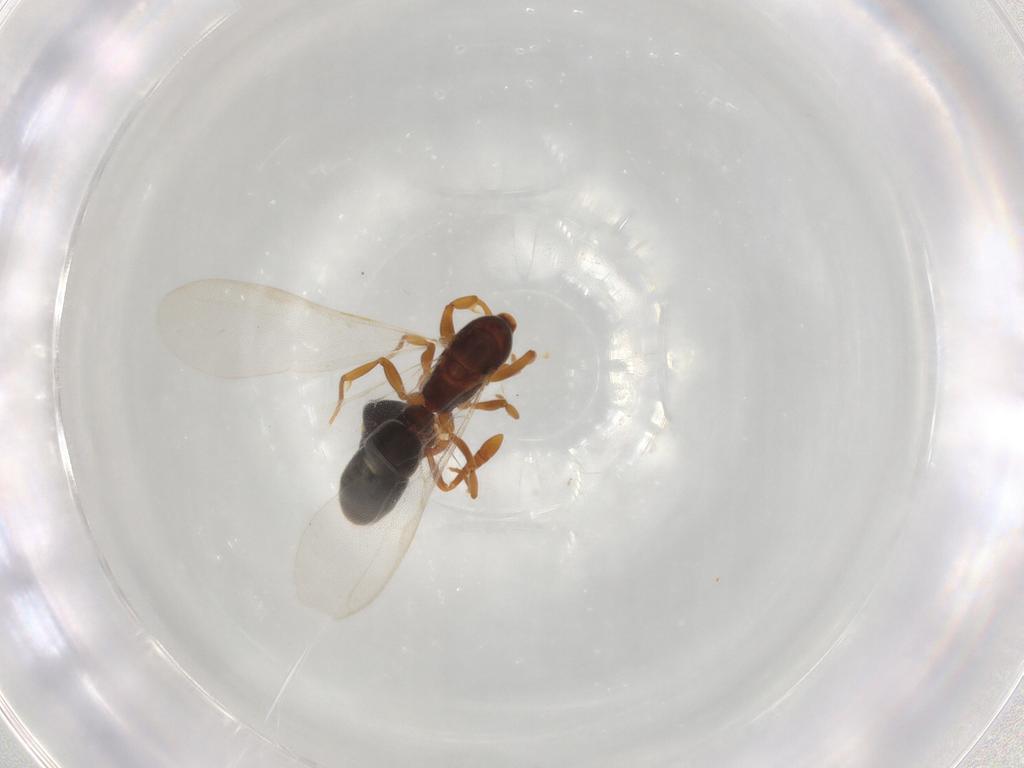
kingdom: Animalia
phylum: Arthropoda
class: Insecta
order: Hymenoptera
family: Formicidae
